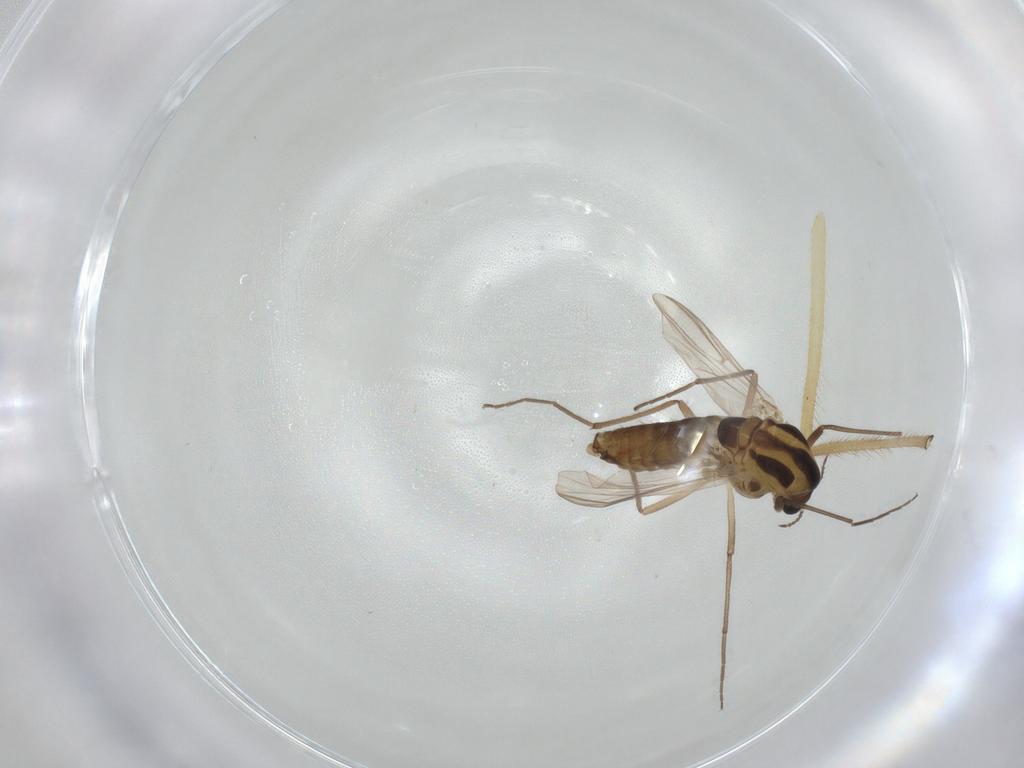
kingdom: Animalia
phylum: Arthropoda
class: Insecta
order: Diptera
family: Chironomidae
